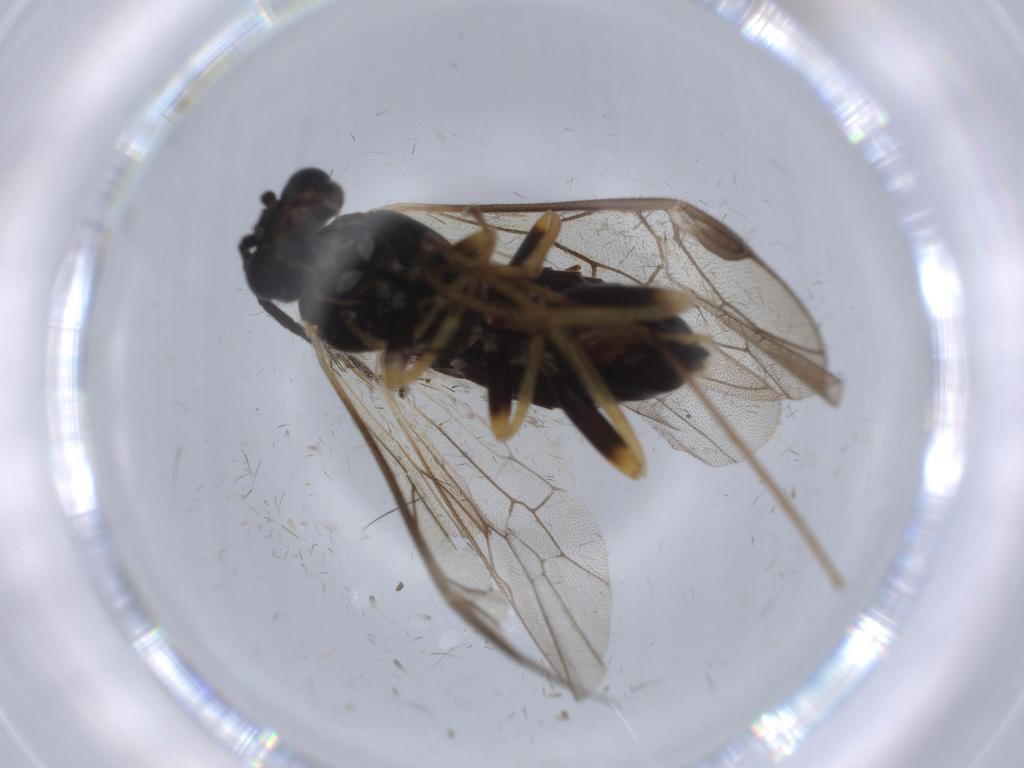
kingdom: Animalia
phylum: Arthropoda
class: Insecta
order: Hymenoptera
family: Tenthredinidae
